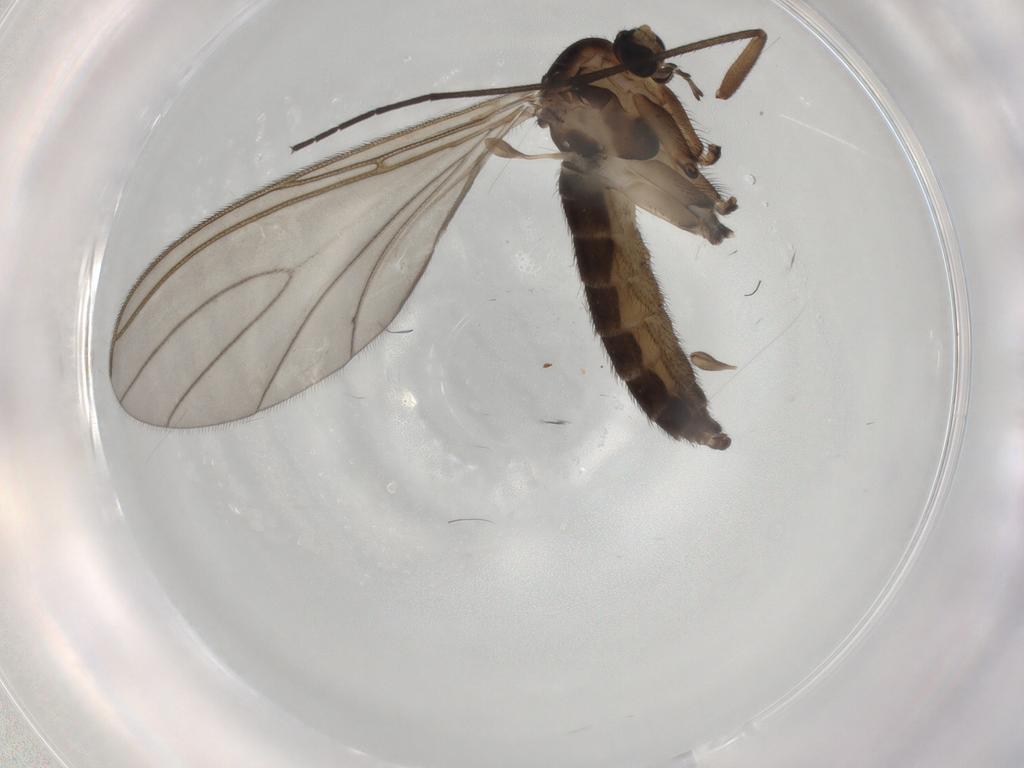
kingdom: Animalia
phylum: Arthropoda
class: Insecta
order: Diptera
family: Sciaridae
